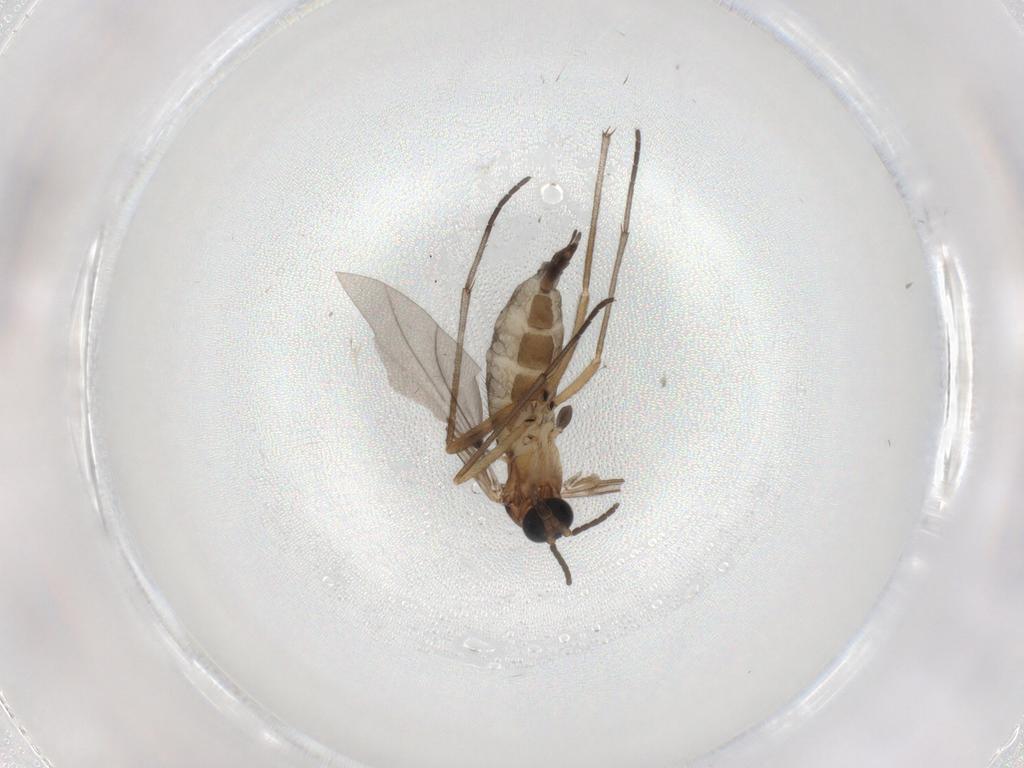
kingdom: Animalia
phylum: Arthropoda
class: Insecta
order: Diptera
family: Psychodidae
